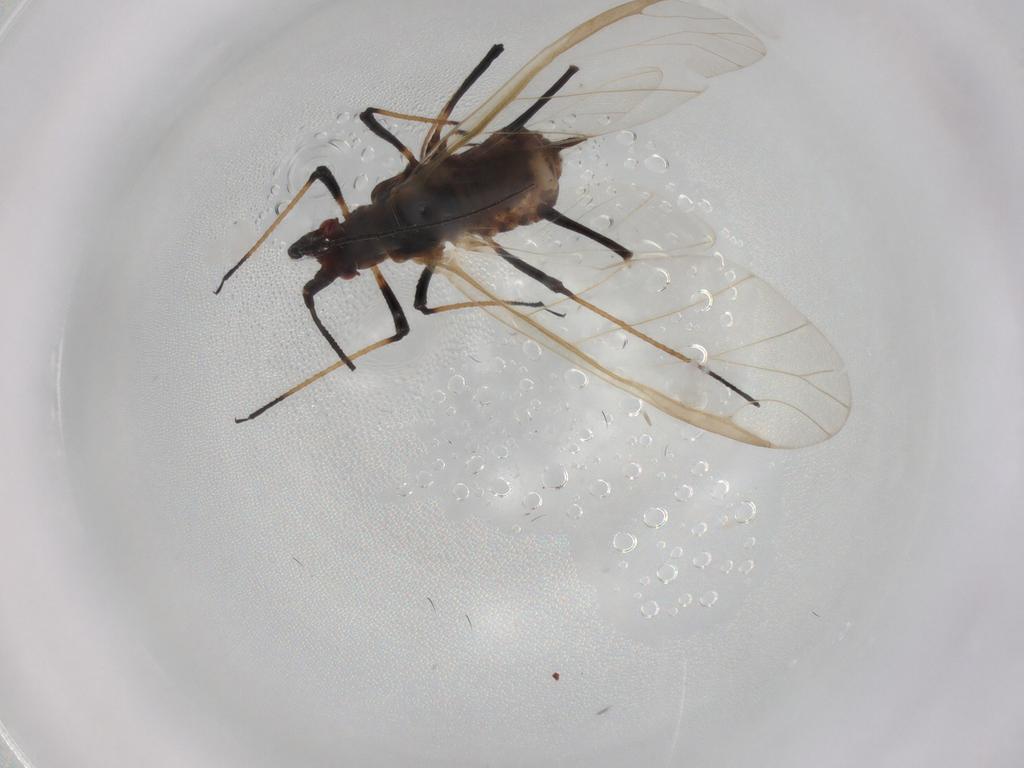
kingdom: Animalia
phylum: Arthropoda
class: Insecta
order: Hemiptera
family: Aphididae
